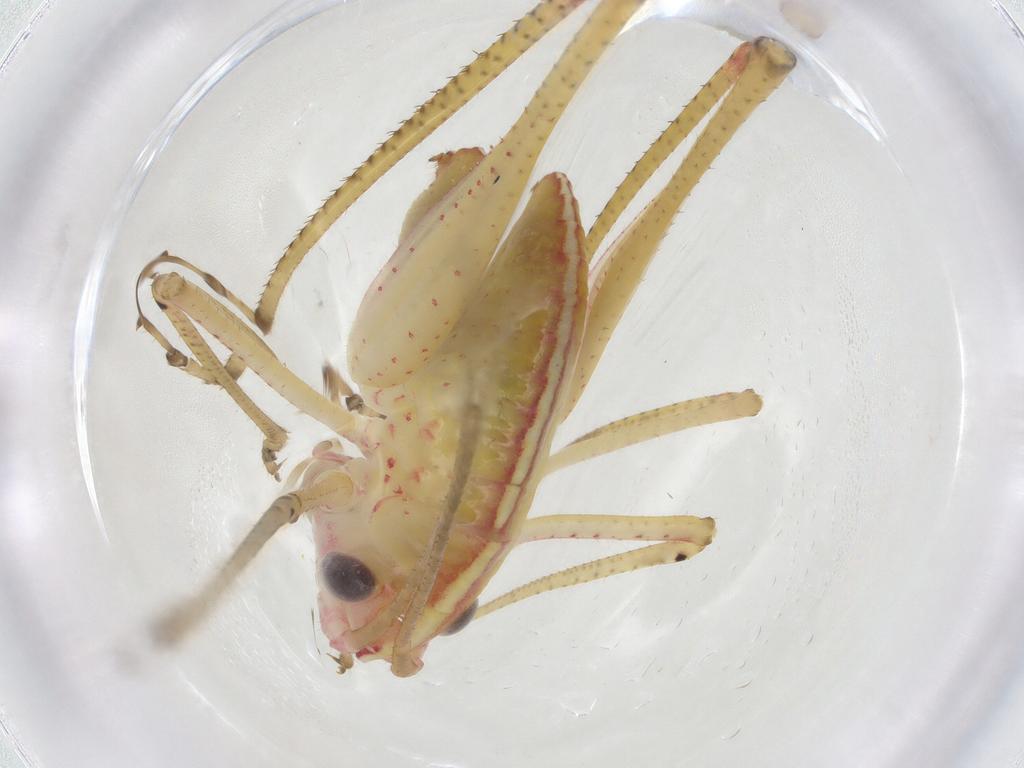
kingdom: Animalia
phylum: Arthropoda
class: Insecta
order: Orthoptera
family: Tettigoniidae
